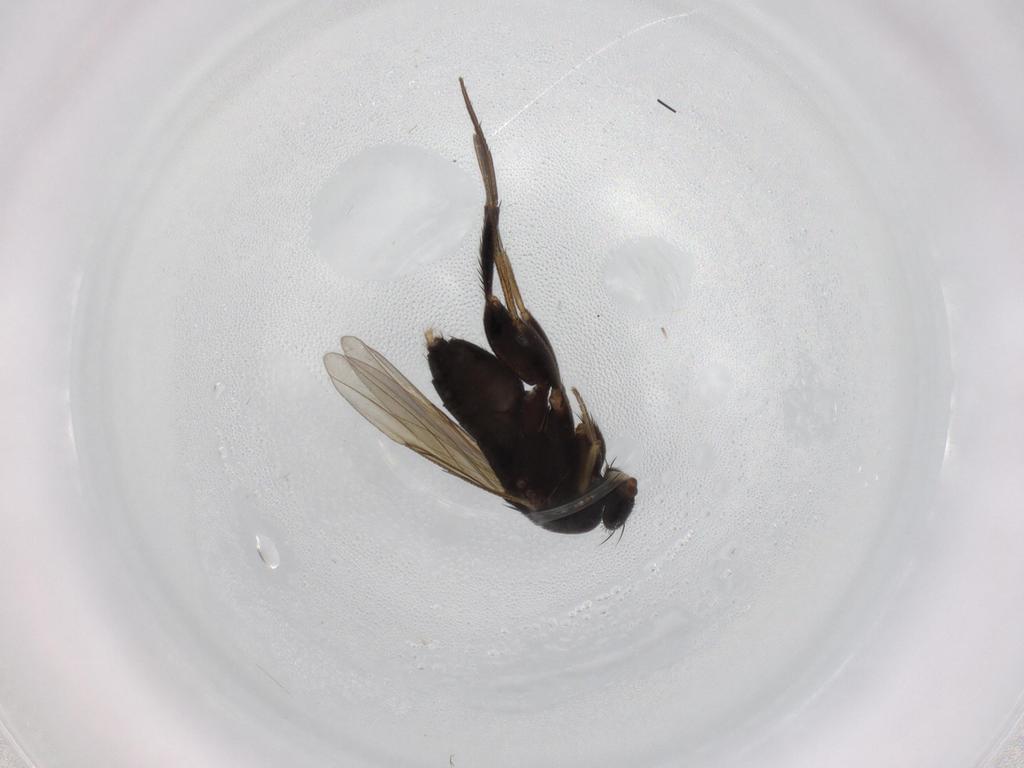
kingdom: Animalia
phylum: Arthropoda
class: Insecta
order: Diptera
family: Phoridae
